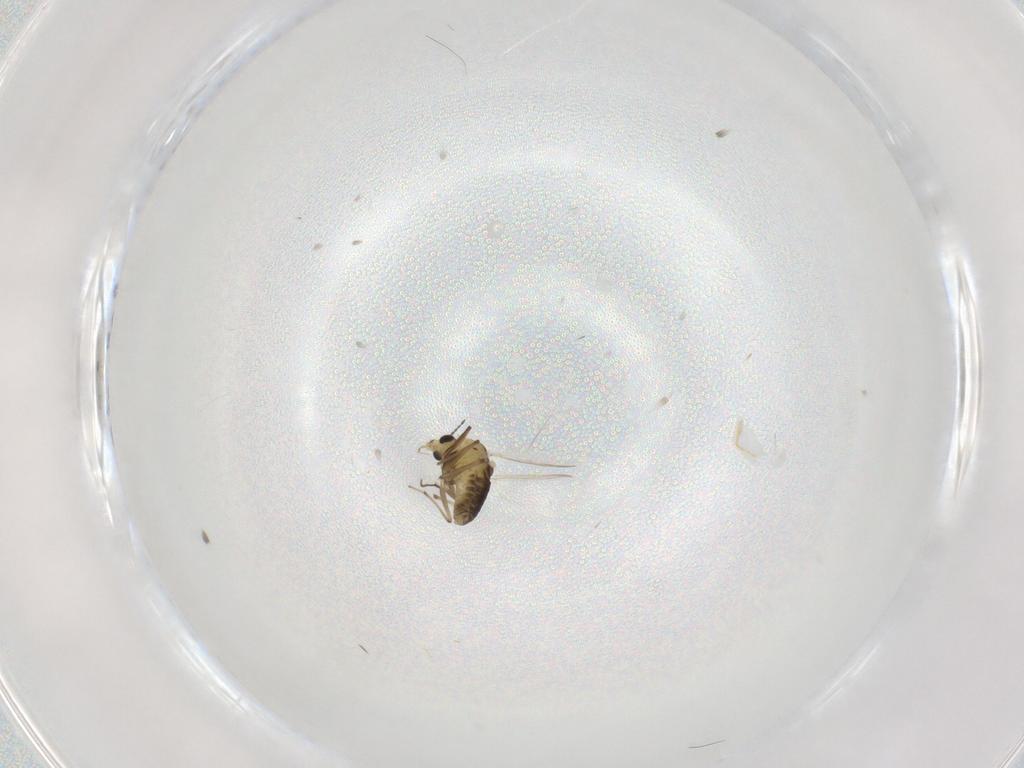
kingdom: Animalia
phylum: Arthropoda
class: Insecta
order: Diptera
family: Chironomidae
